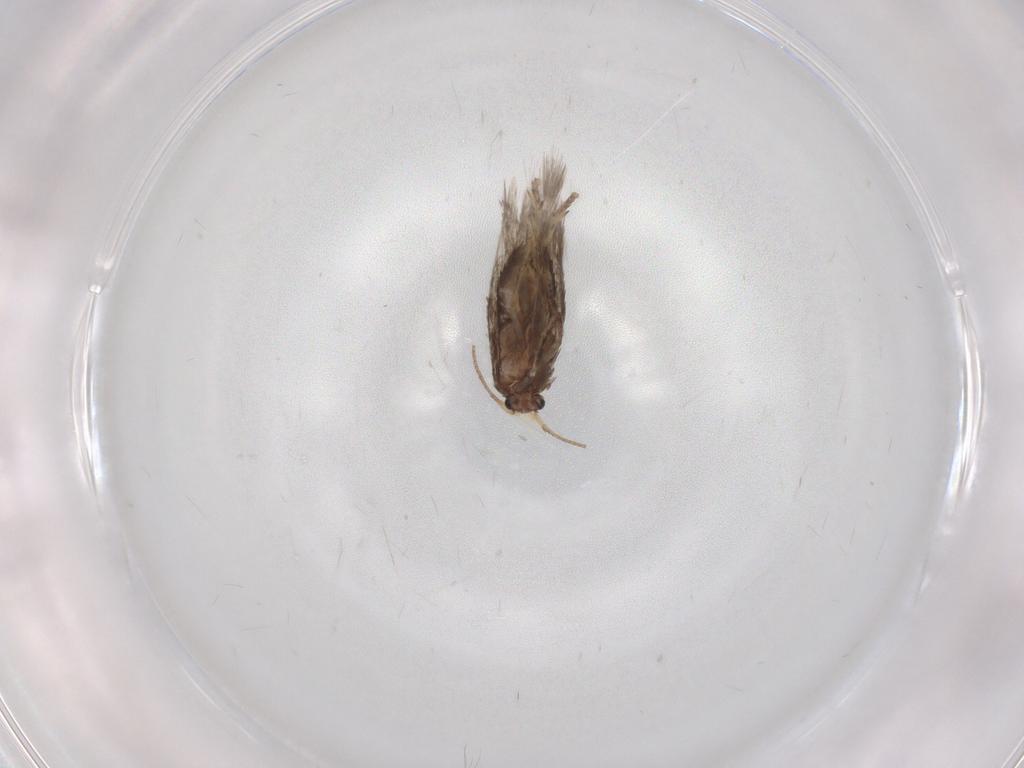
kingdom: Animalia
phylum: Arthropoda
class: Insecta
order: Lepidoptera
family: Nepticulidae
